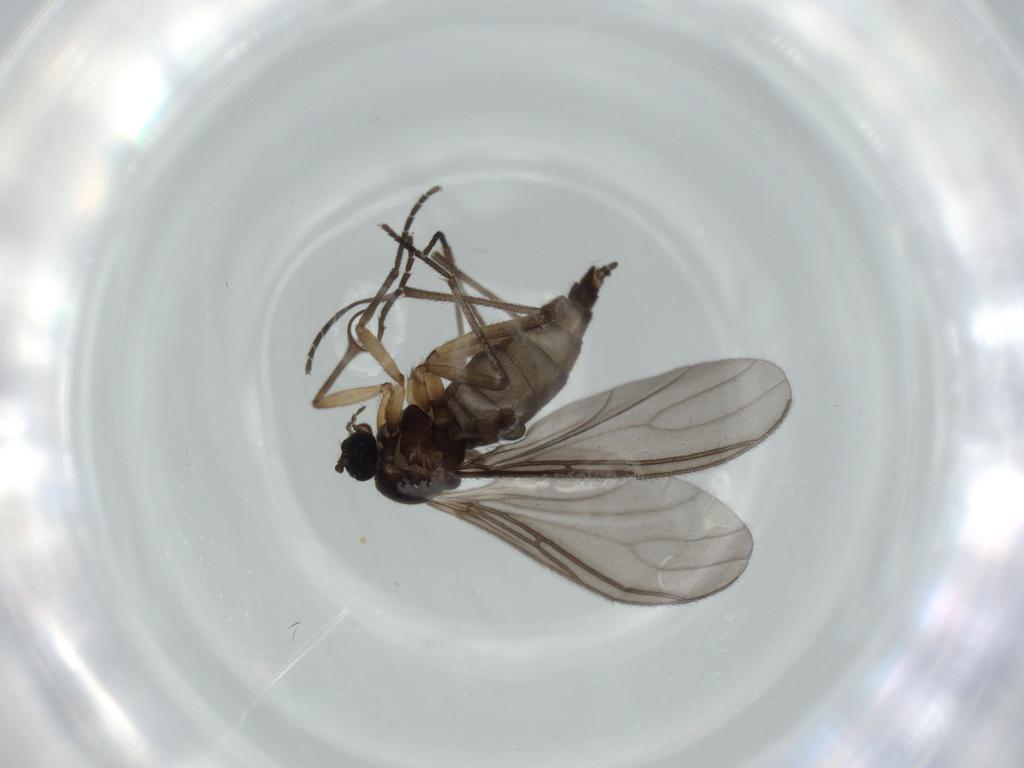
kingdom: Animalia
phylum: Arthropoda
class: Insecta
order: Diptera
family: Sciaridae
